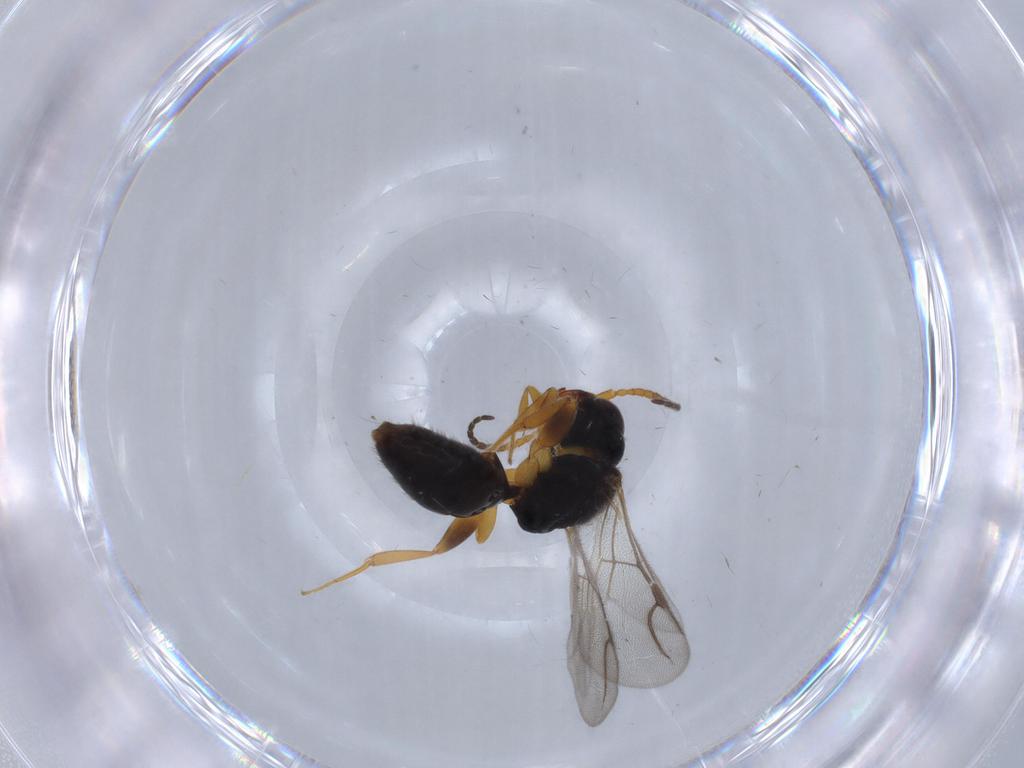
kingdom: Animalia
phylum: Arthropoda
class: Insecta
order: Hymenoptera
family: Bethylidae
